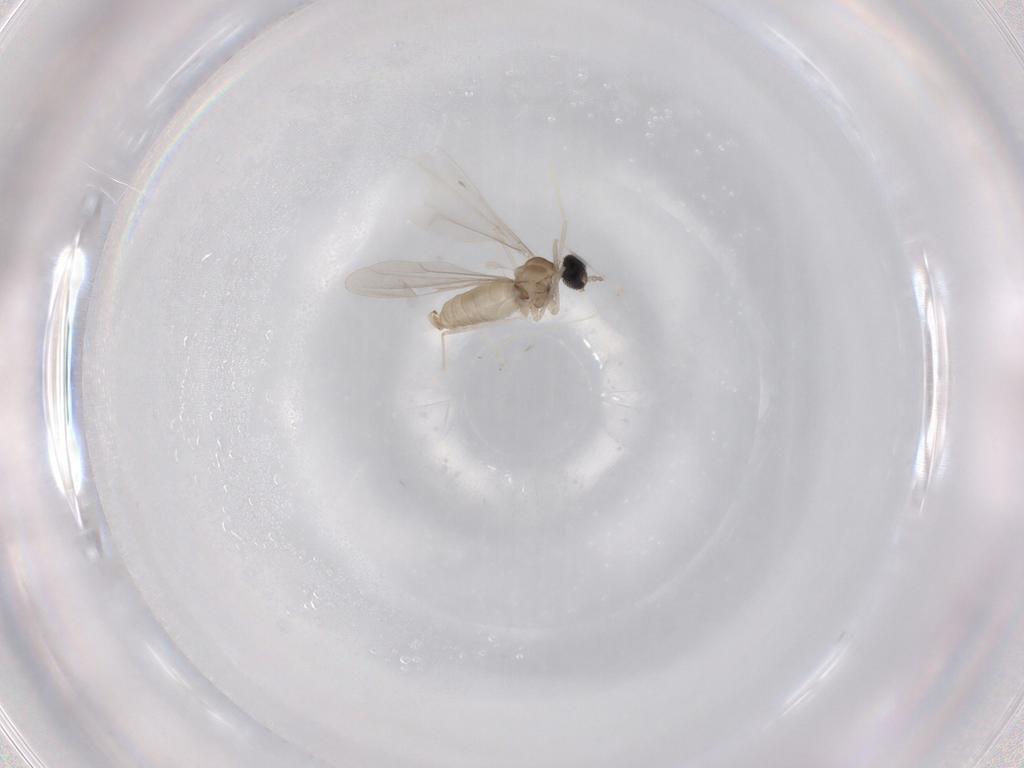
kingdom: Animalia
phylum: Arthropoda
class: Insecta
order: Diptera
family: Cecidomyiidae
